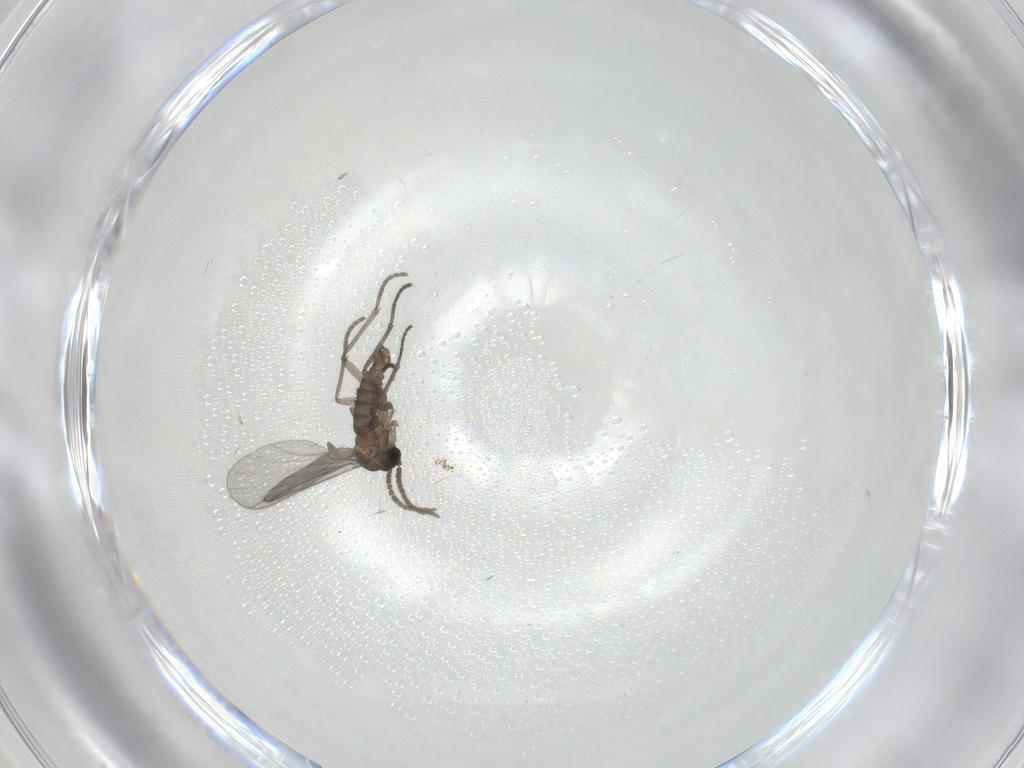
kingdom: Animalia
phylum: Arthropoda
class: Insecta
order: Diptera
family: Sciaridae
